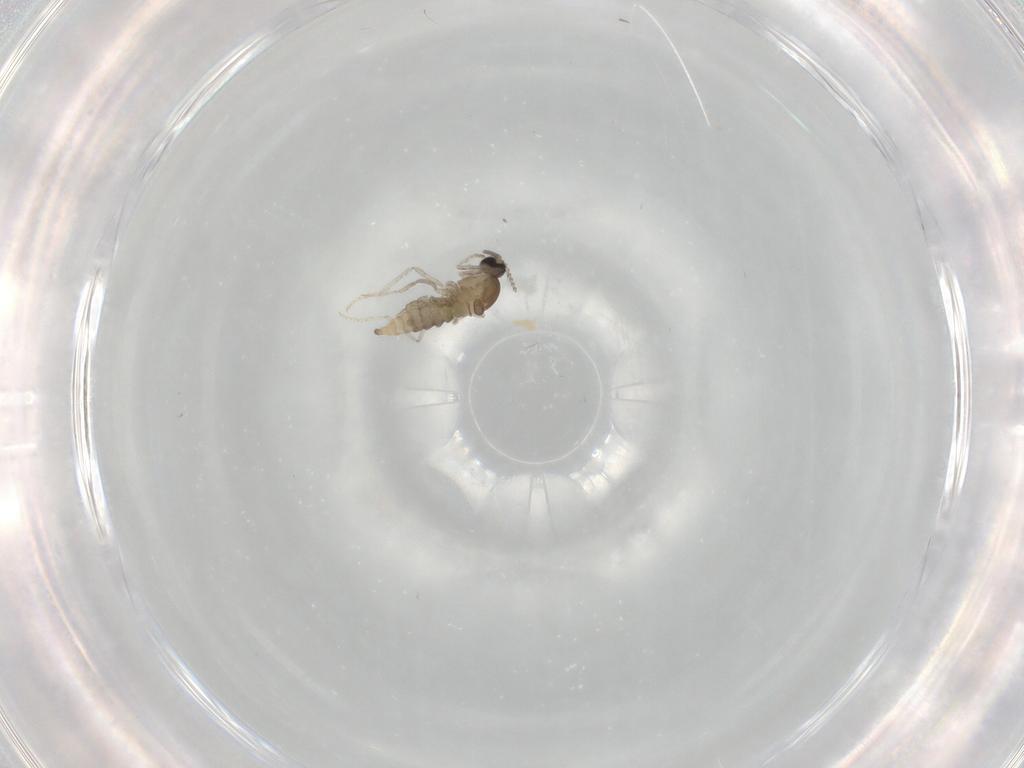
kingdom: Animalia
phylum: Arthropoda
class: Insecta
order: Diptera
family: Cecidomyiidae
